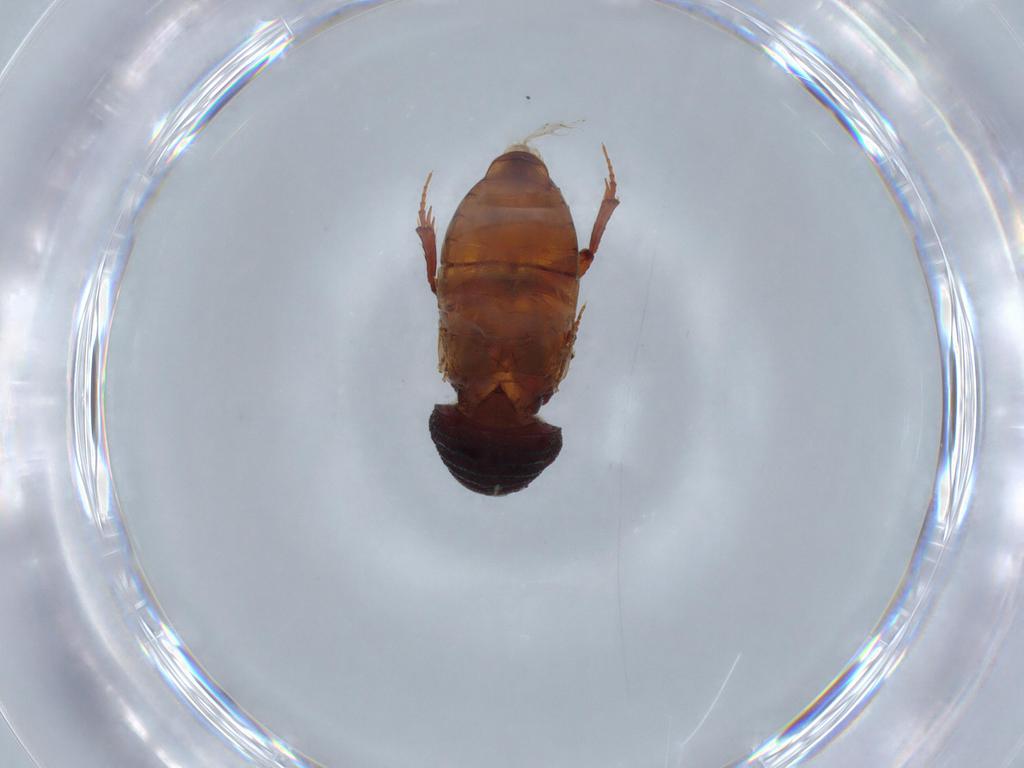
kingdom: Animalia
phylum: Arthropoda
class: Insecta
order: Coleoptera
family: Scarabaeidae
